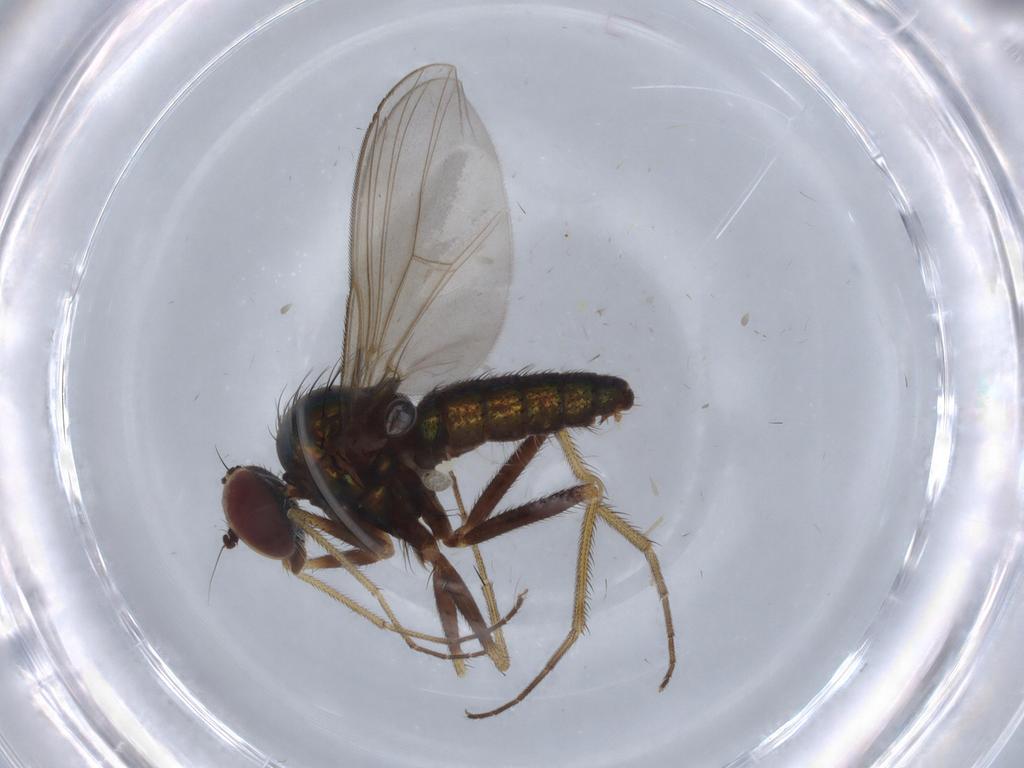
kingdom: Animalia
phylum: Arthropoda
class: Insecta
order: Diptera
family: Dolichopodidae
